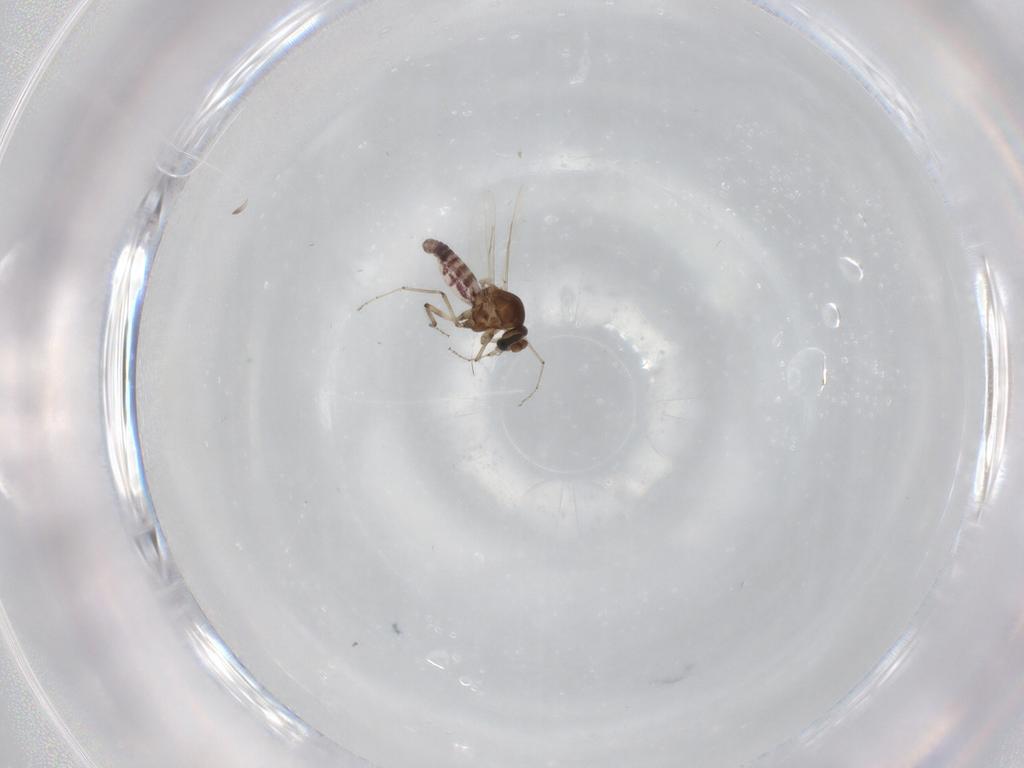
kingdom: Animalia
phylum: Arthropoda
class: Insecta
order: Diptera
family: Ceratopogonidae
